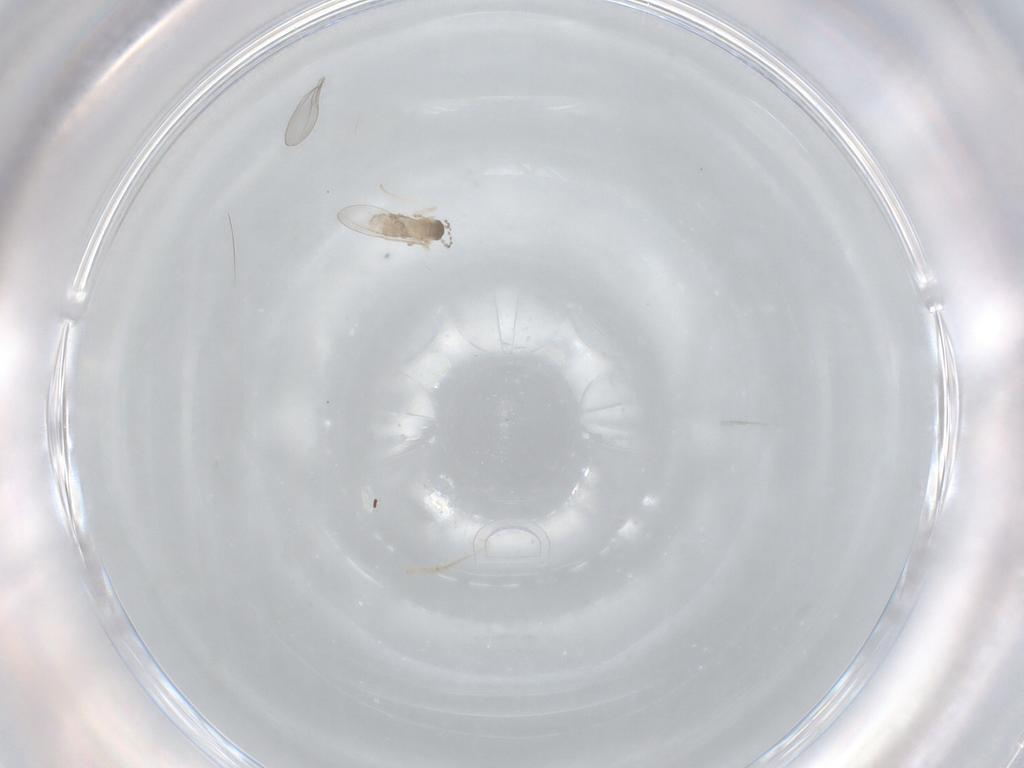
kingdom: Animalia
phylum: Arthropoda
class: Insecta
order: Diptera
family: Cecidomyiidae
